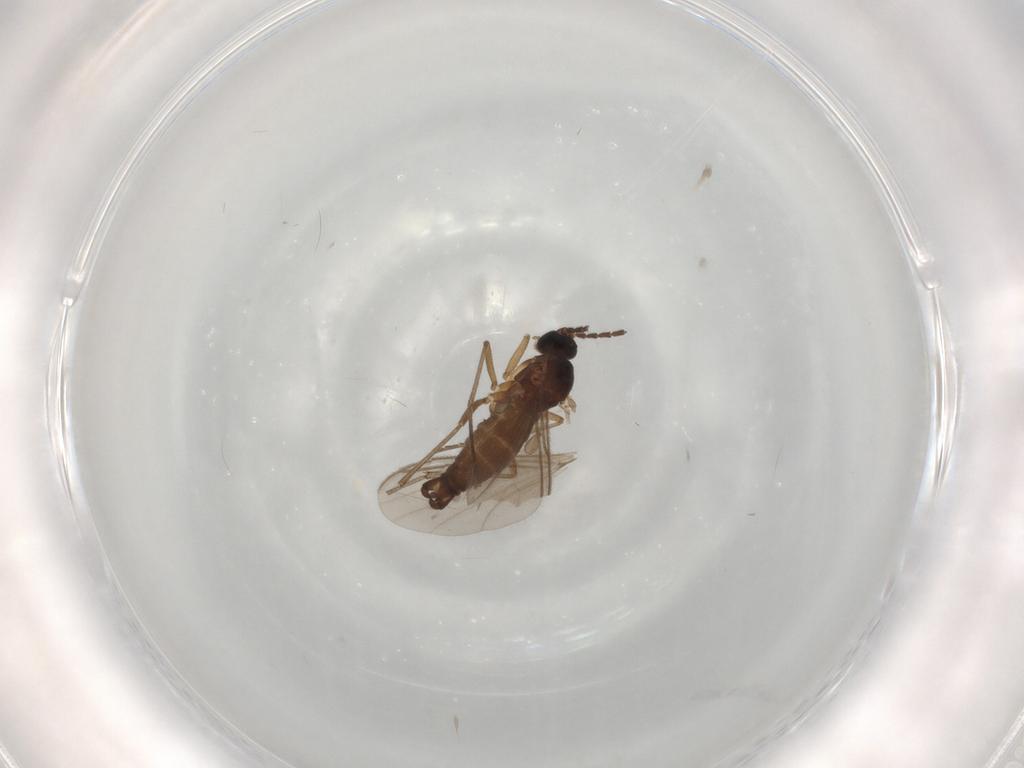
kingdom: Animalia
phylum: Arthropoda
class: Insecta
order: Diptera
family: Sciaridae
